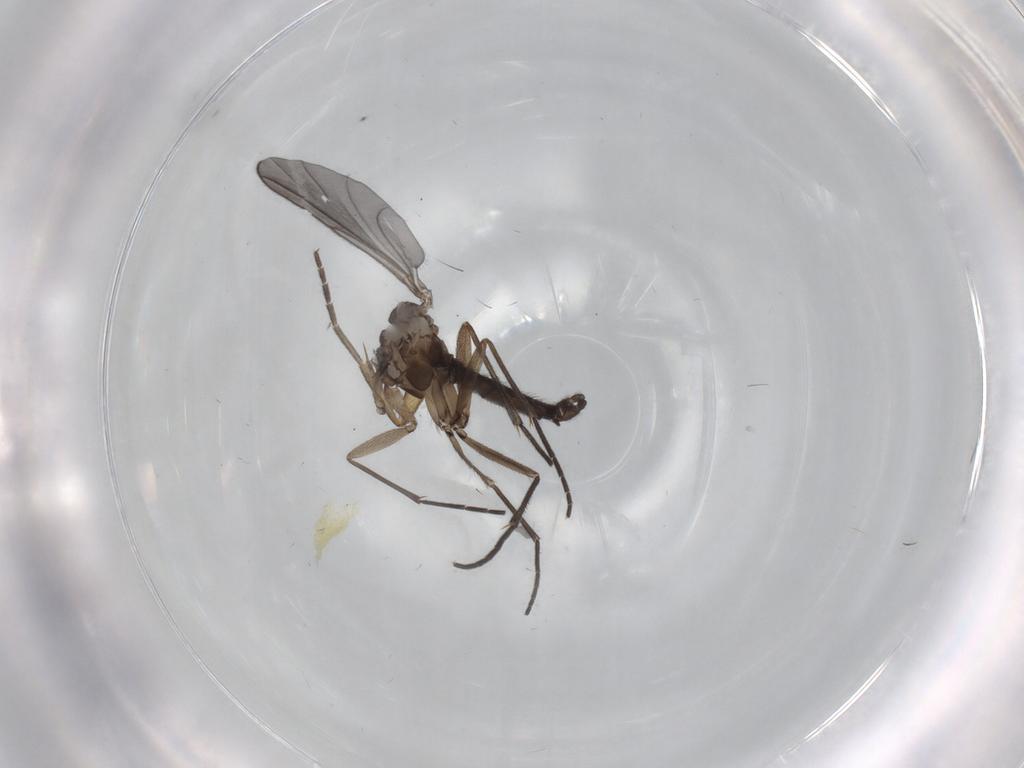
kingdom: Animalia
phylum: Arthropoda
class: Insecta
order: Diptera
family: Sciaridae
